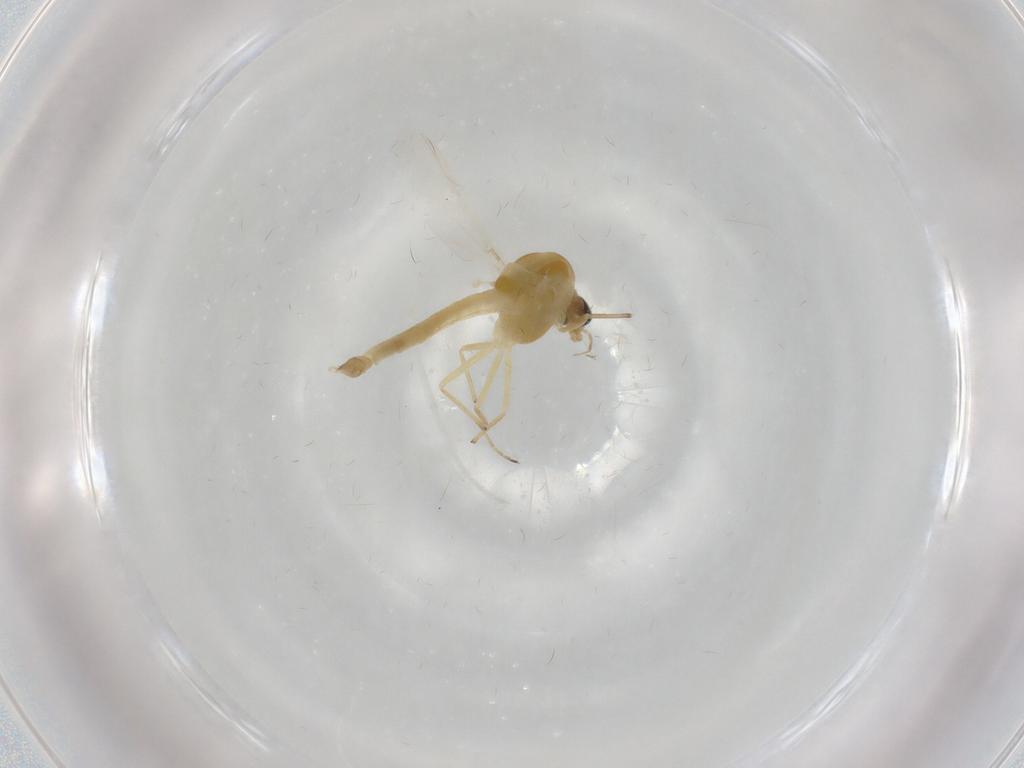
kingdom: Animalia
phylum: Arthropoda
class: Insecta
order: Diptera
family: Chironomidae
